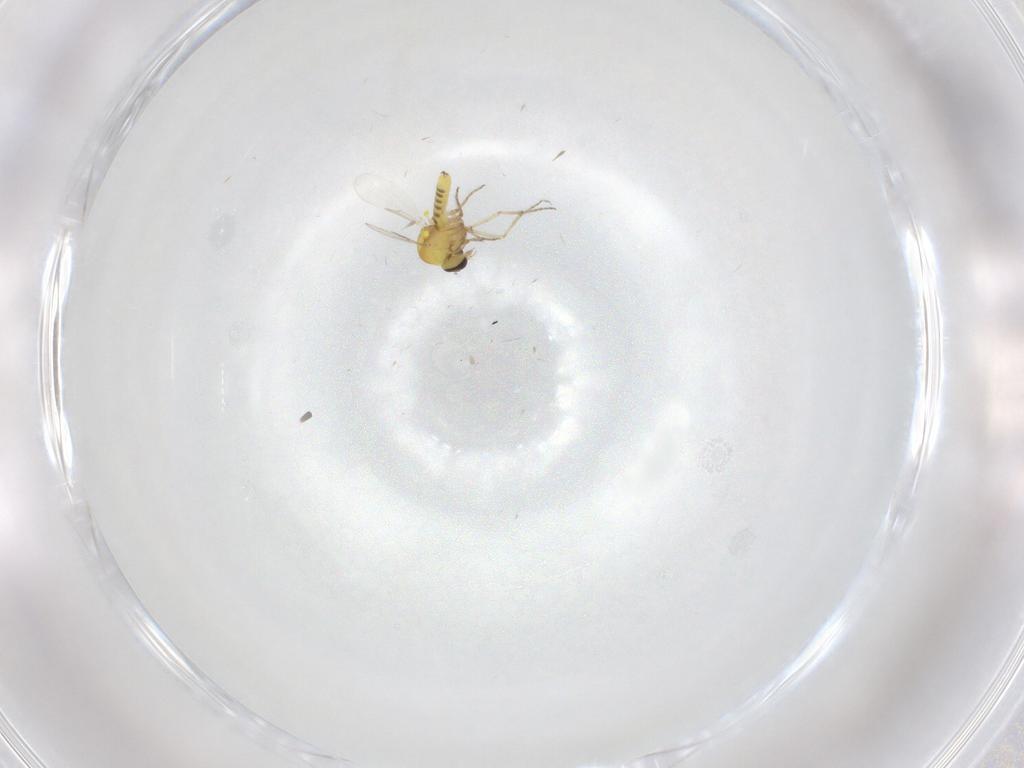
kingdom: Animalia
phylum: Arthropoda
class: Insecta
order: Diptera
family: Ceratopogonidae
